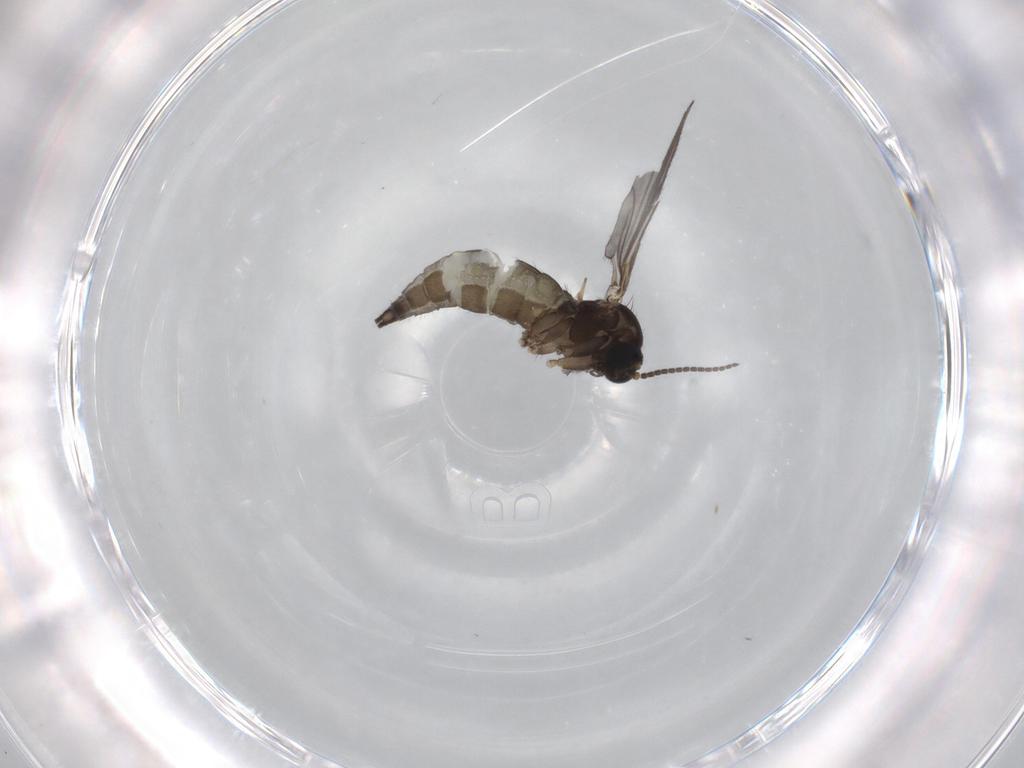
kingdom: Animalia
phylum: Arthropoda
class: Insecta
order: Diptera
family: Sciaridae
